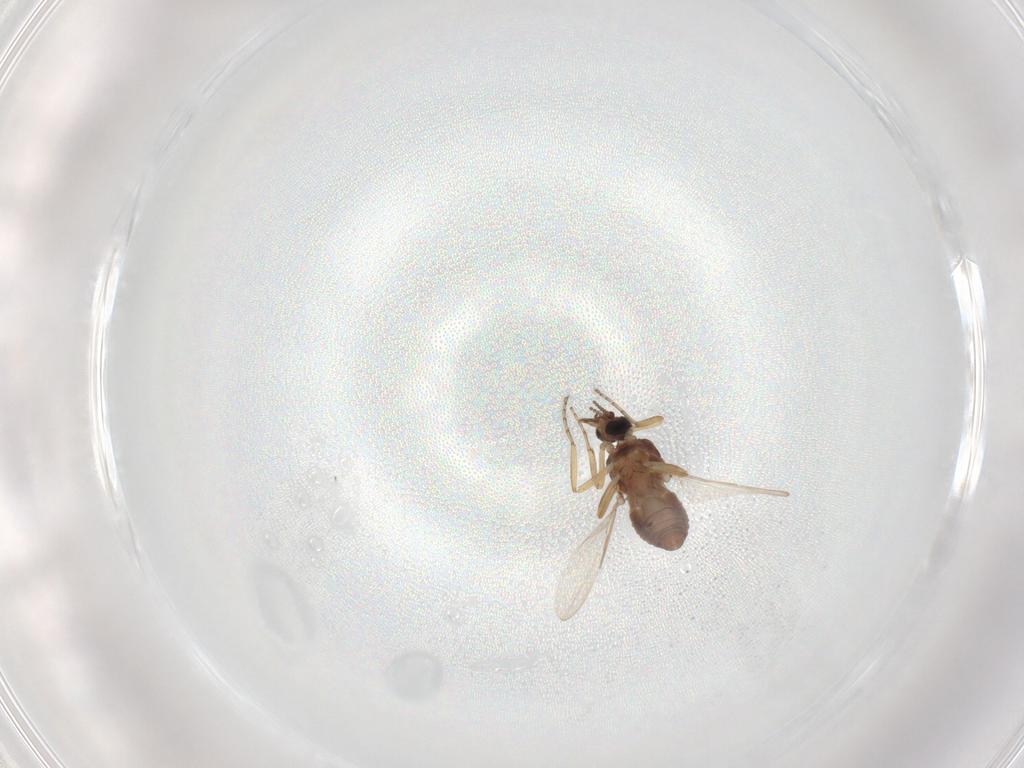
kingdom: Animalia
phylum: Arthropoda
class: Insecta
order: Diptera
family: Ceratopogonidae
